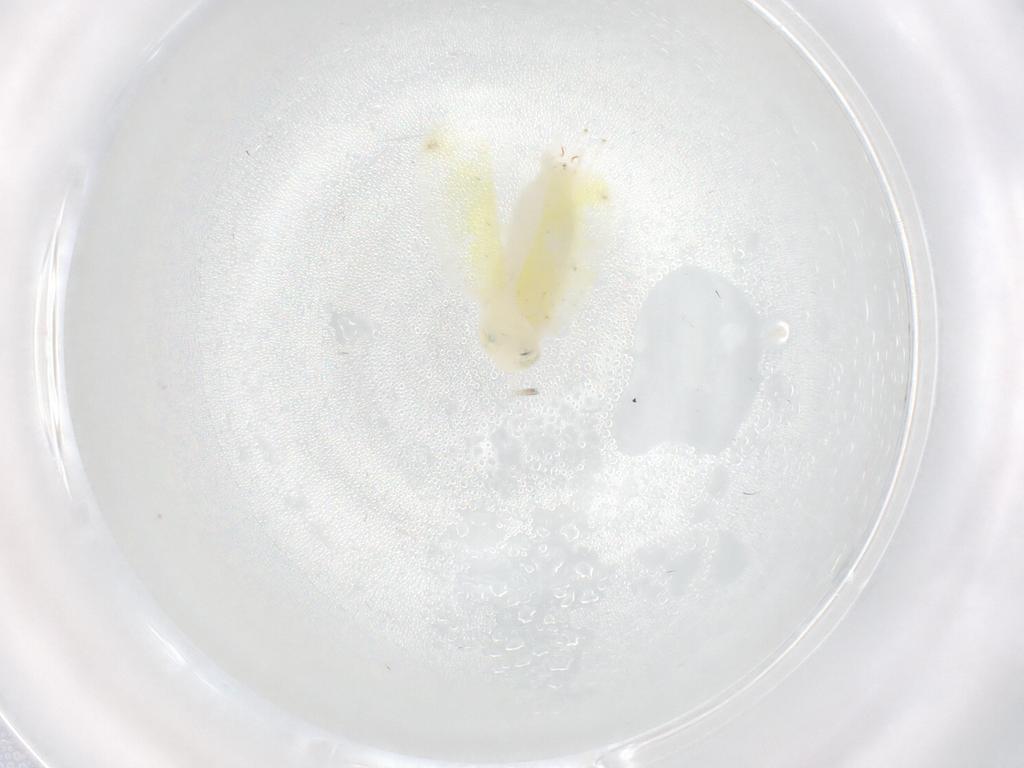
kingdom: Animalia
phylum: Arthropoda
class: Insecta
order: Hemiptera
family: Cicadellidae
